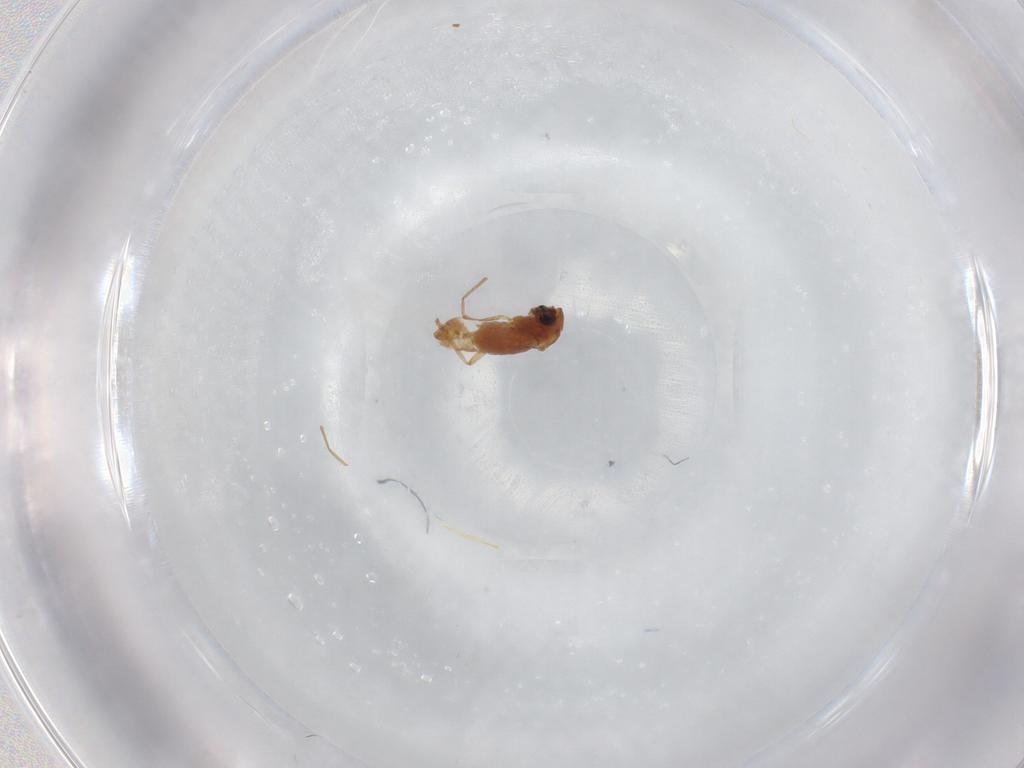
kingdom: Animalia
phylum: Arthropoda
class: Insecta
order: Diptera
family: Chironomidae
